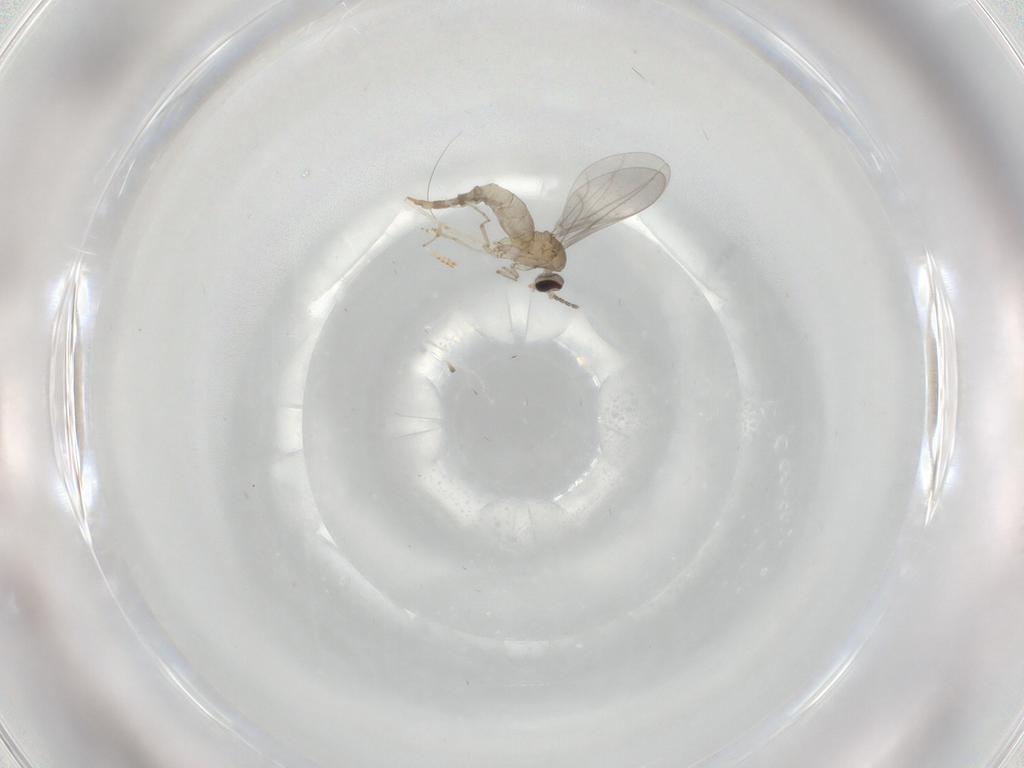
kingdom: Animalia
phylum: Arthropoda
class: Insecta
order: Diptera
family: Cecidomyiidae
